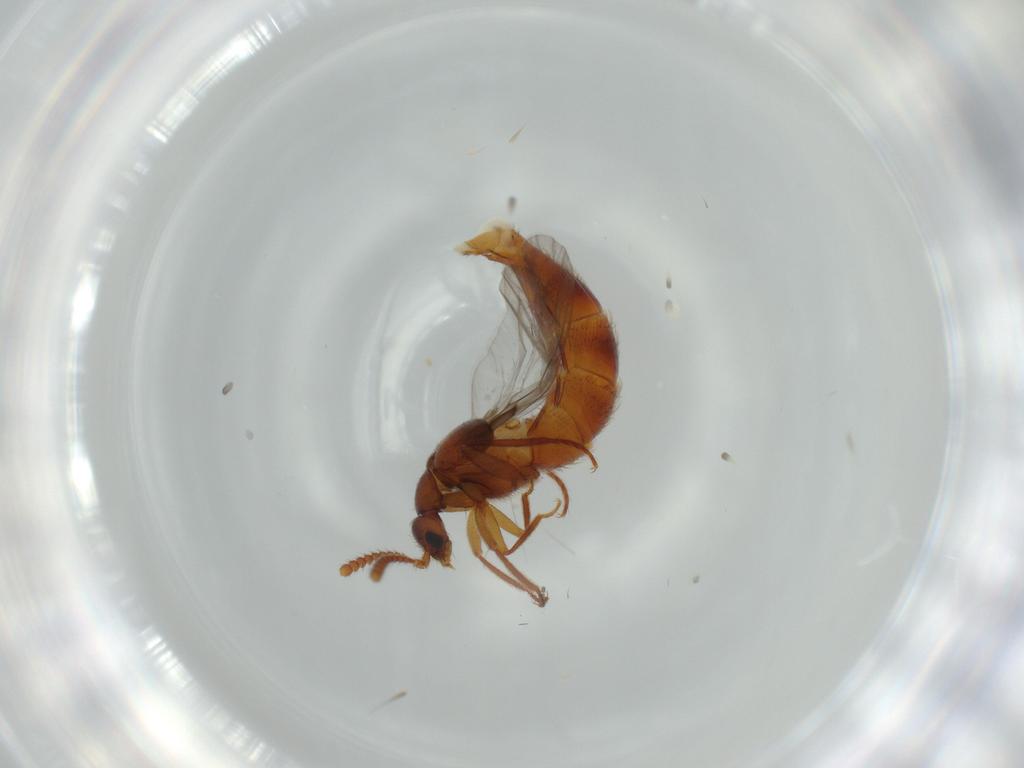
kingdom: Animalia
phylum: Arthropoda
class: Insecta
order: Coleoptera
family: Staphylinidae
